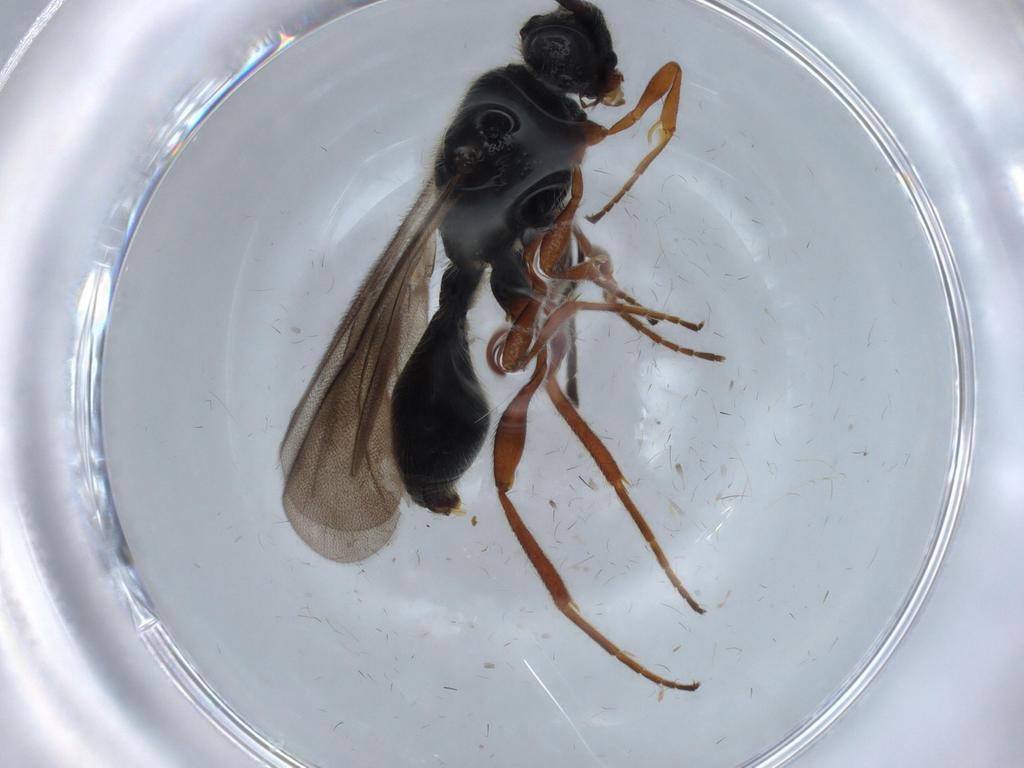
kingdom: Animalia
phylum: Arthropoda
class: Insecta
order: Hymenoptera
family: Diapriidae
